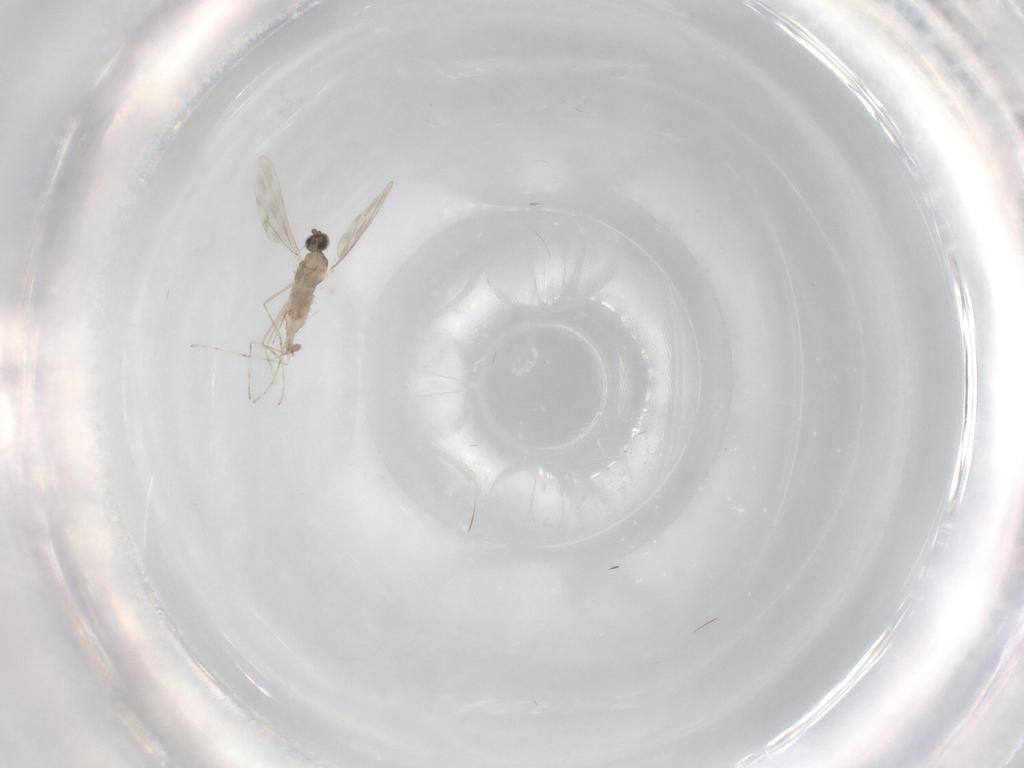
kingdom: Animalia
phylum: Arthropoda
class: Insecta
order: Diptera
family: Cecidomyiidae
